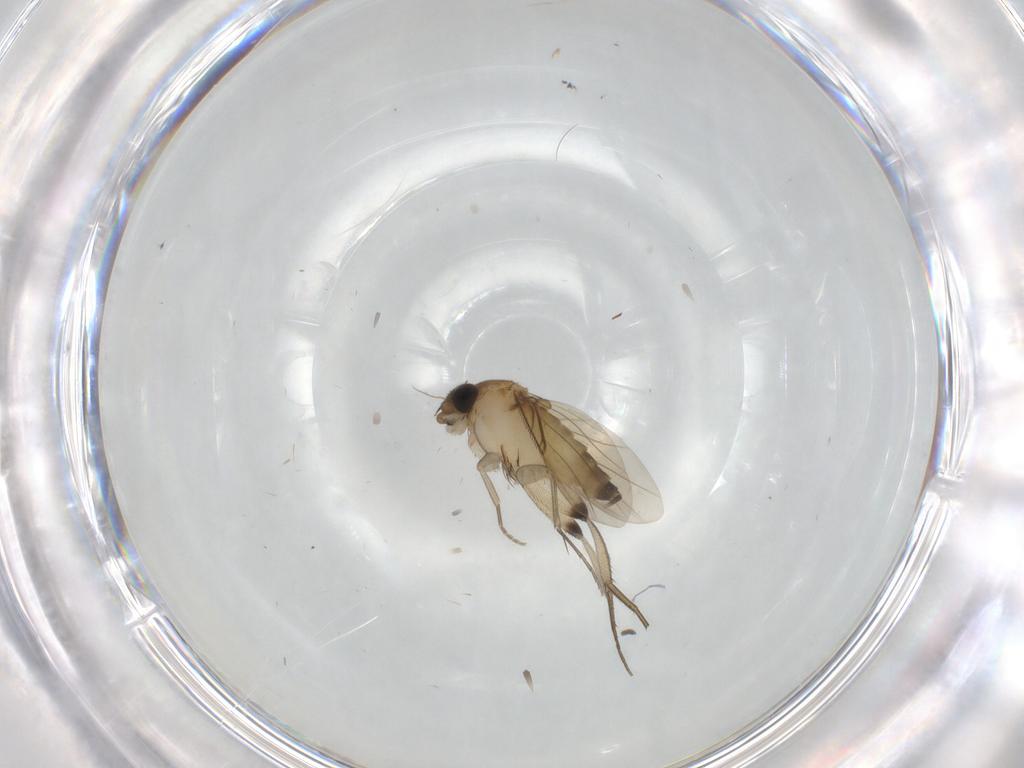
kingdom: Animalia
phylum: Arthropoda
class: Insecta
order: Diptera
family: Phoridae
